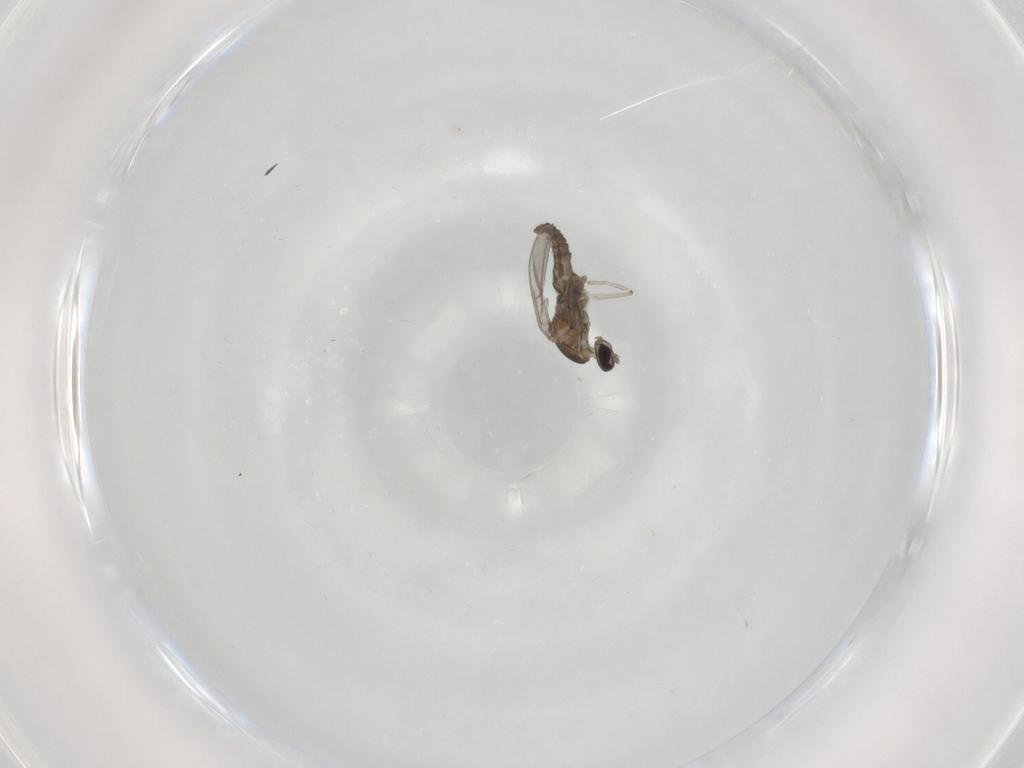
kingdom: Animalia
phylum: Arthropoda
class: Insecta
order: Diptera
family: Chironomidae
